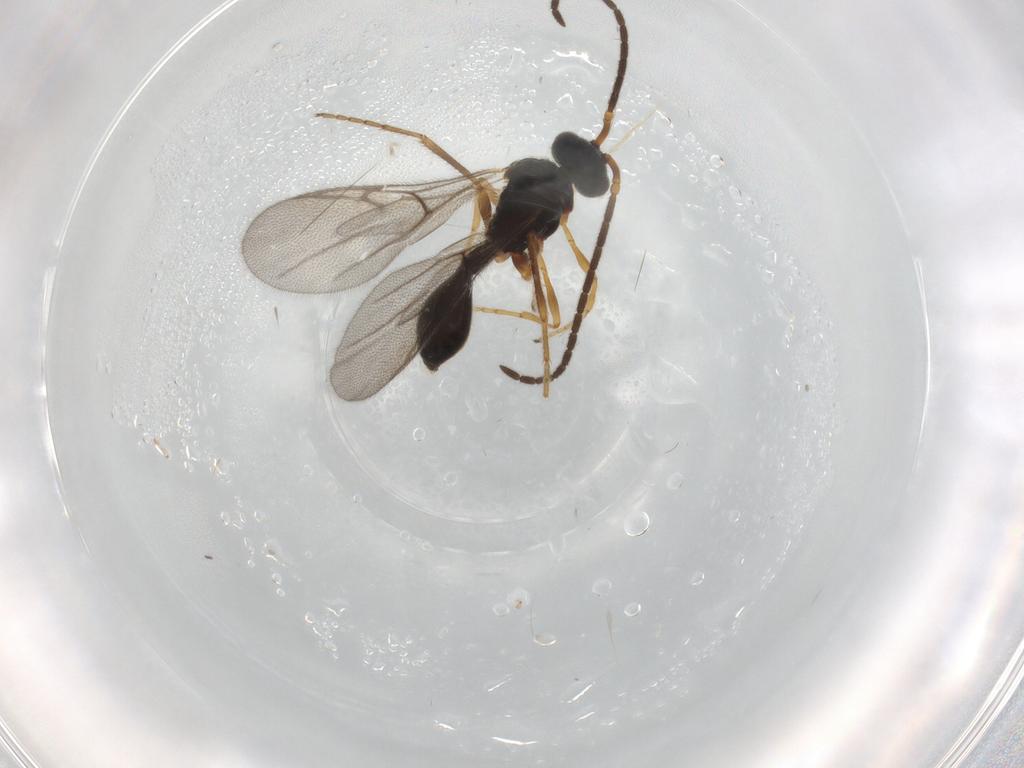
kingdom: Animalia
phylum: Arthropoda
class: Insecta
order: Hymenoptera
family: Diapriidae
